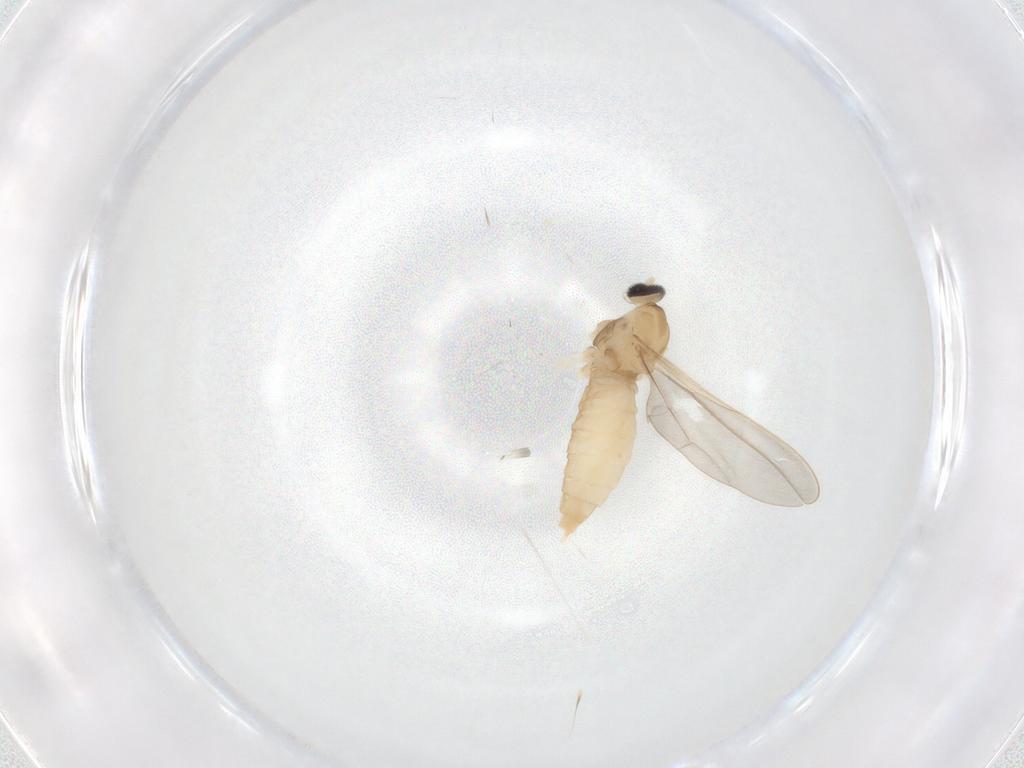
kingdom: Animalia
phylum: Arthropoda
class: Insecta
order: Diptera
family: Cecidomyiidae
